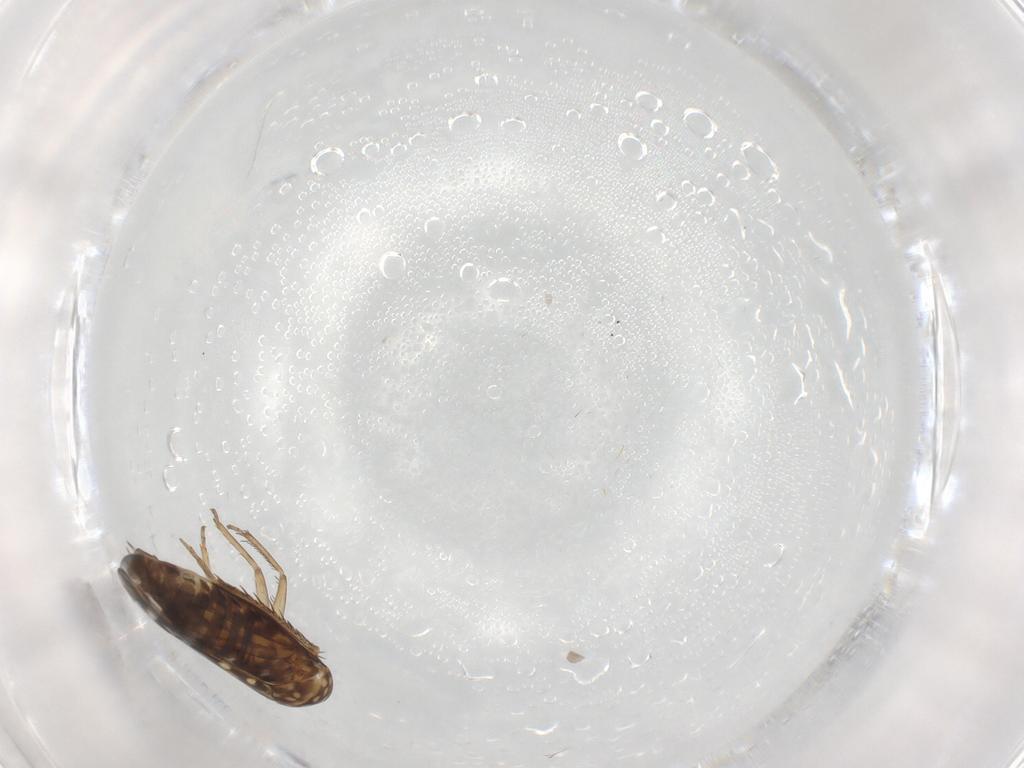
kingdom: Animalia
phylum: Arthropoda
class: Insecta
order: Hemiptera
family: Cicadellidae
